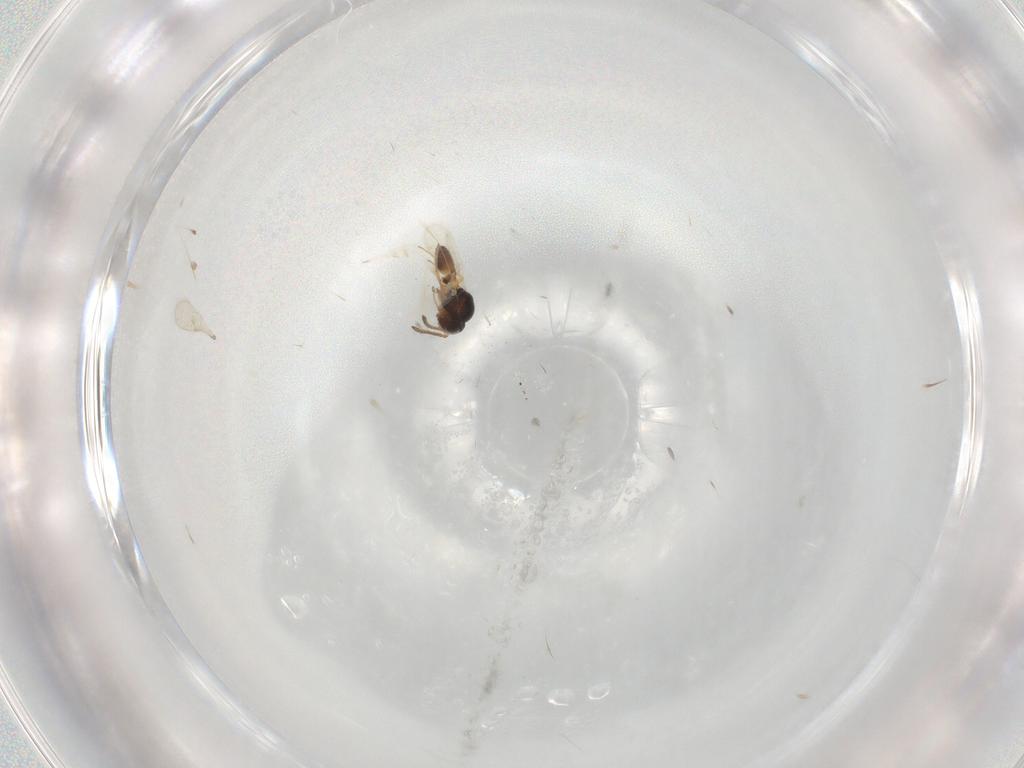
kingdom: Animalia
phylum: Arthropoda
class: Insecta
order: Hymenoptera
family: Scelionidae
